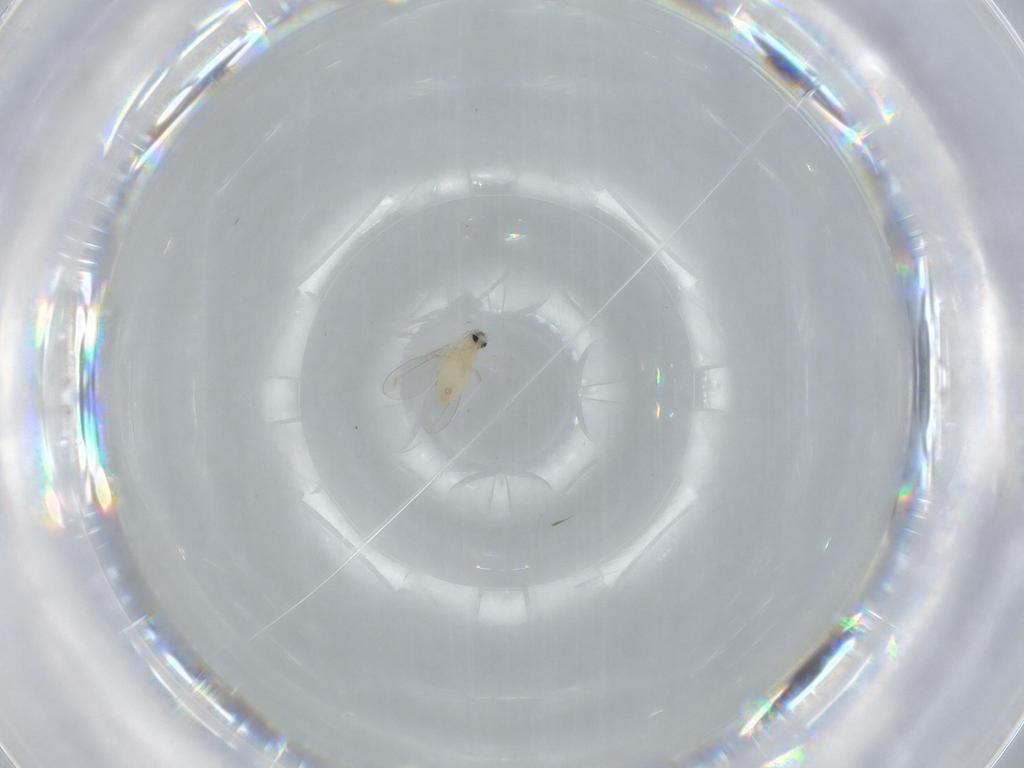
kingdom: Animalia
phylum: Arthropoda
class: Insecta
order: Diptera
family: Cecidomyiidae
